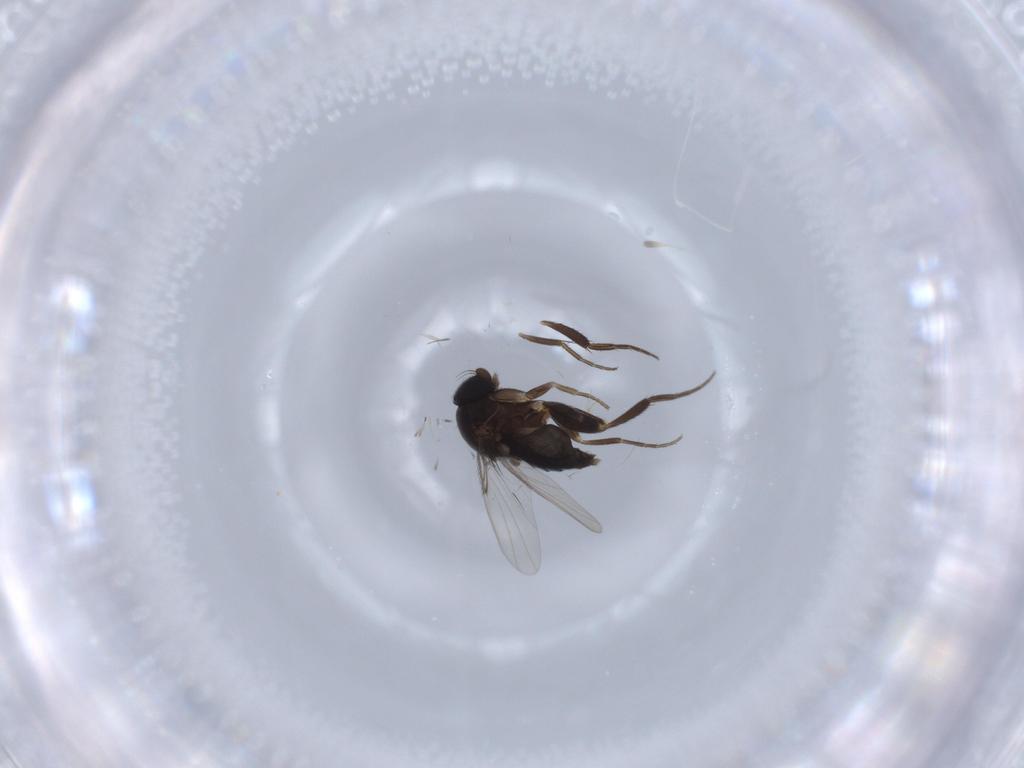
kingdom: Animalia
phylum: Arthropoda
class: Insecta
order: Diptera
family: Phoridae
